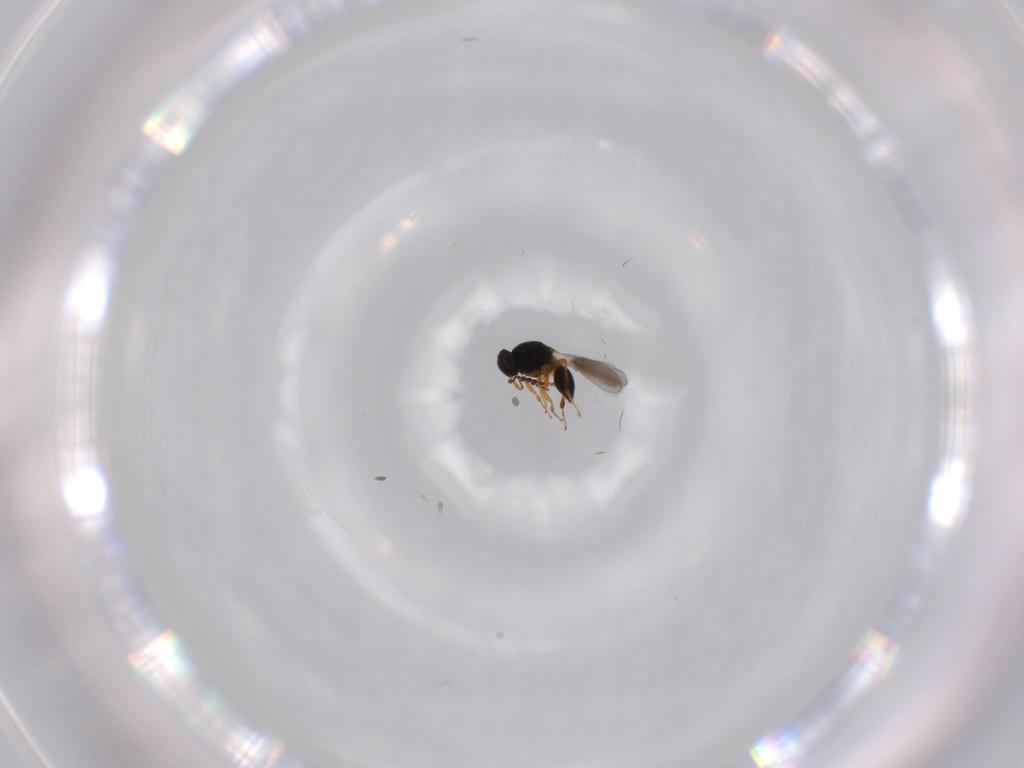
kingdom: Animalia
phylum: Arthropoda
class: Insecta
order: Hymenoptera
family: Platygastridae
